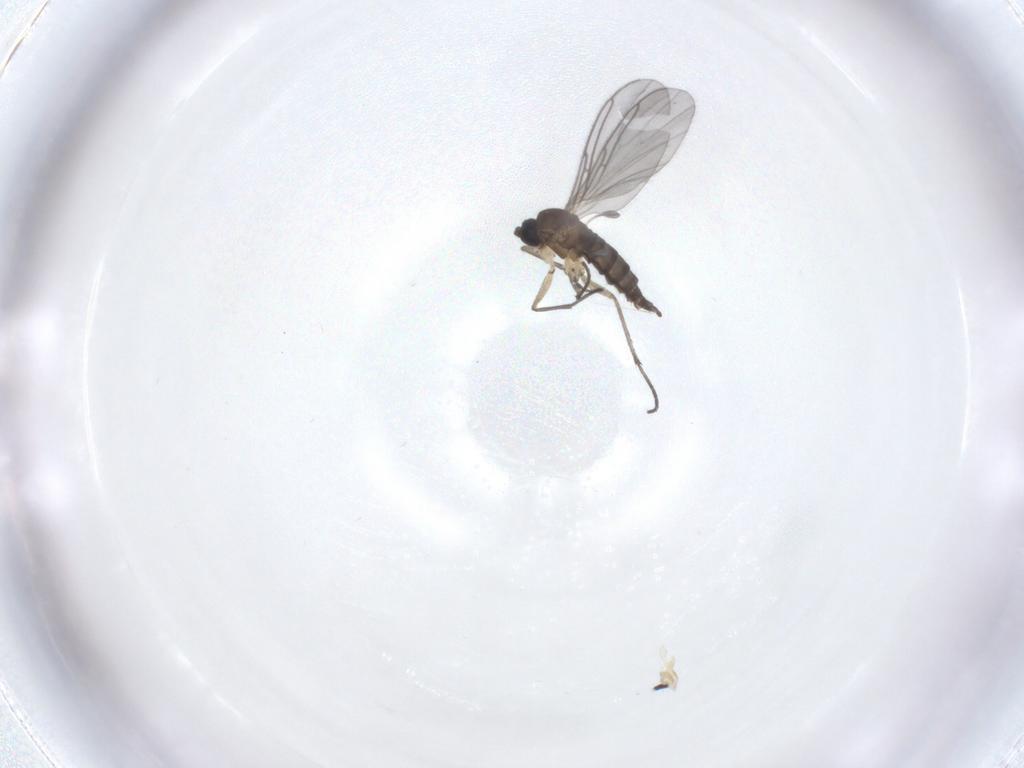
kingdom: Animalia
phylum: Arthropoda
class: Insecta
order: Diptera
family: Sciaridae
